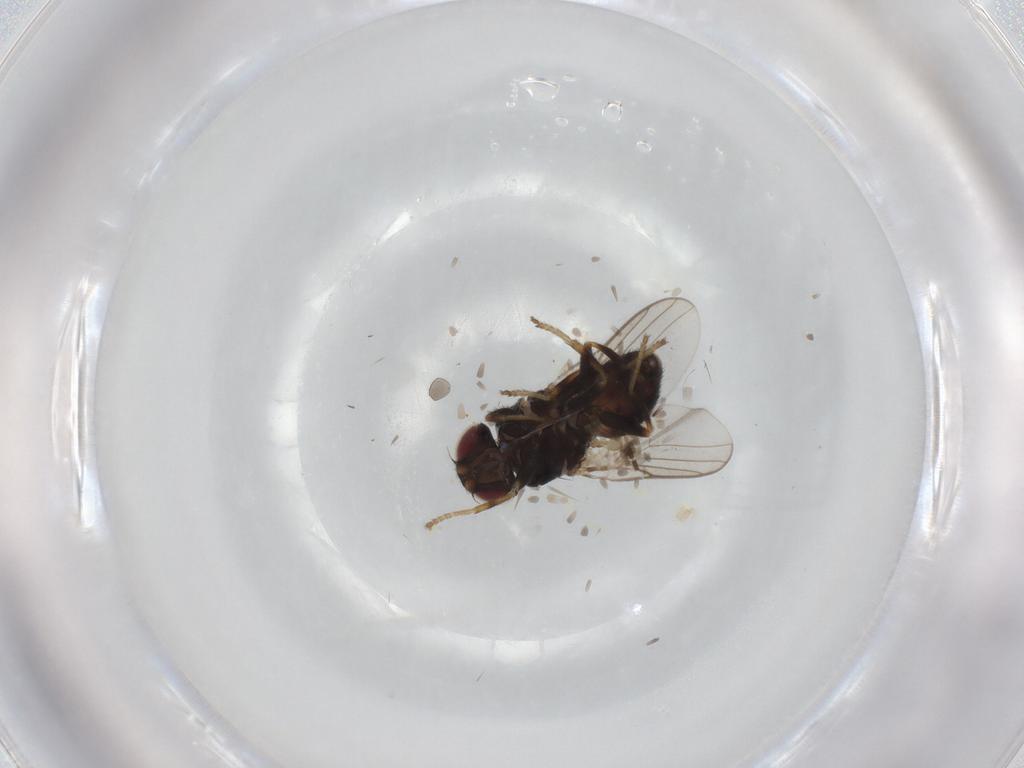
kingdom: Animalia
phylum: Arthropoda
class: Insecta
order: Diptera
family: Chloropidae
